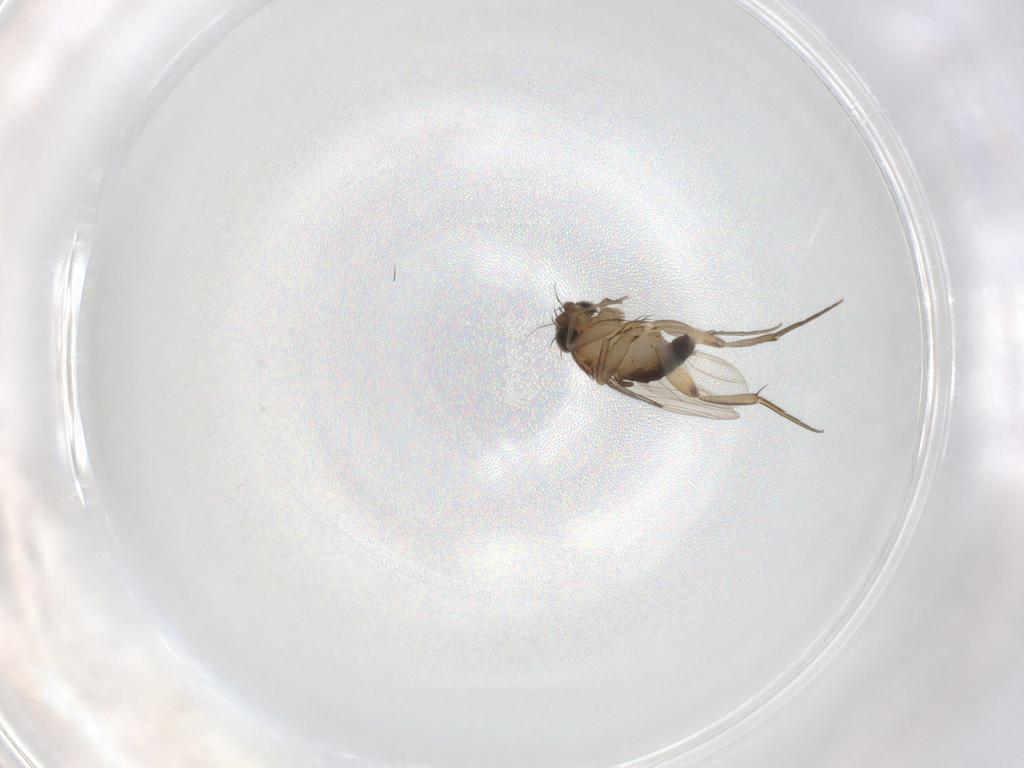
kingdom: Animalia
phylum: Arthropoda
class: Insecta
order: Diptera
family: Phoridae
